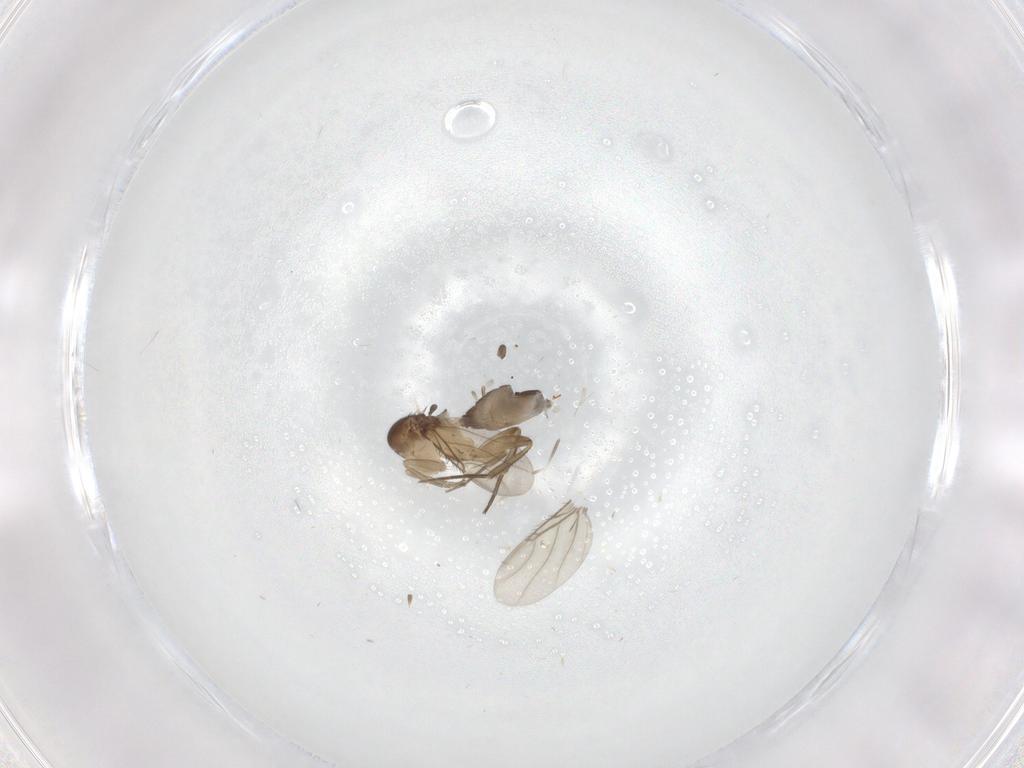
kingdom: Animalia
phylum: Arthropoda
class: Insecta
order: Diptera
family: Phoridae
